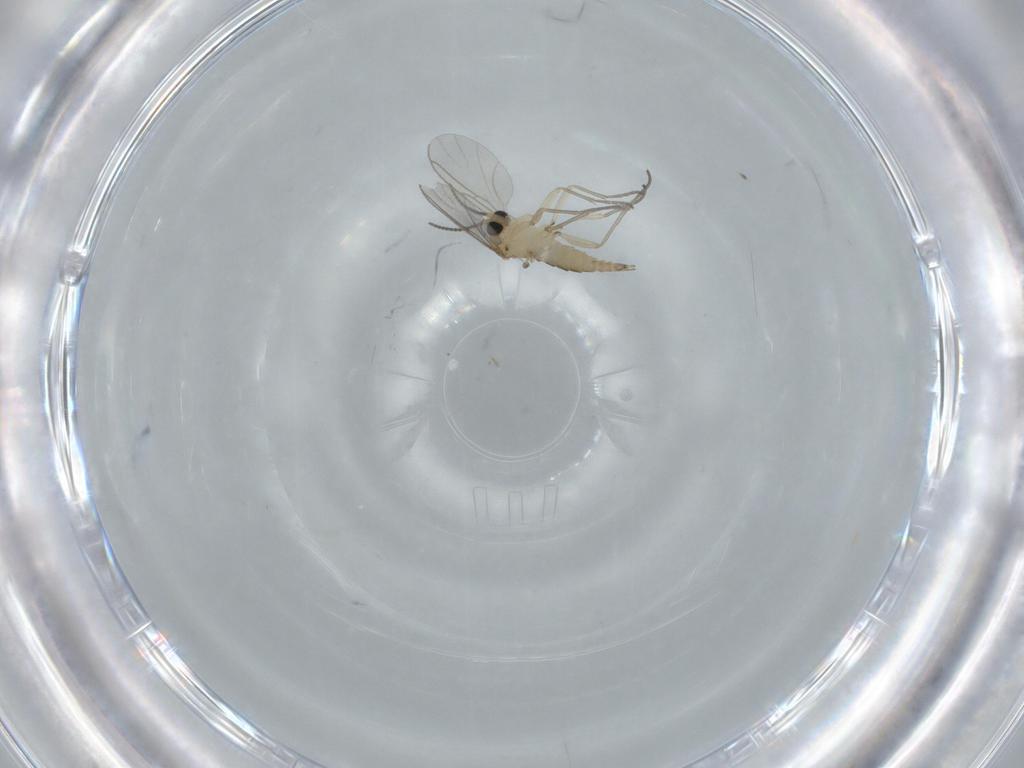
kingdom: Animalia
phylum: Arthropoda
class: Insecta
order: Diptera
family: Sciaridae
